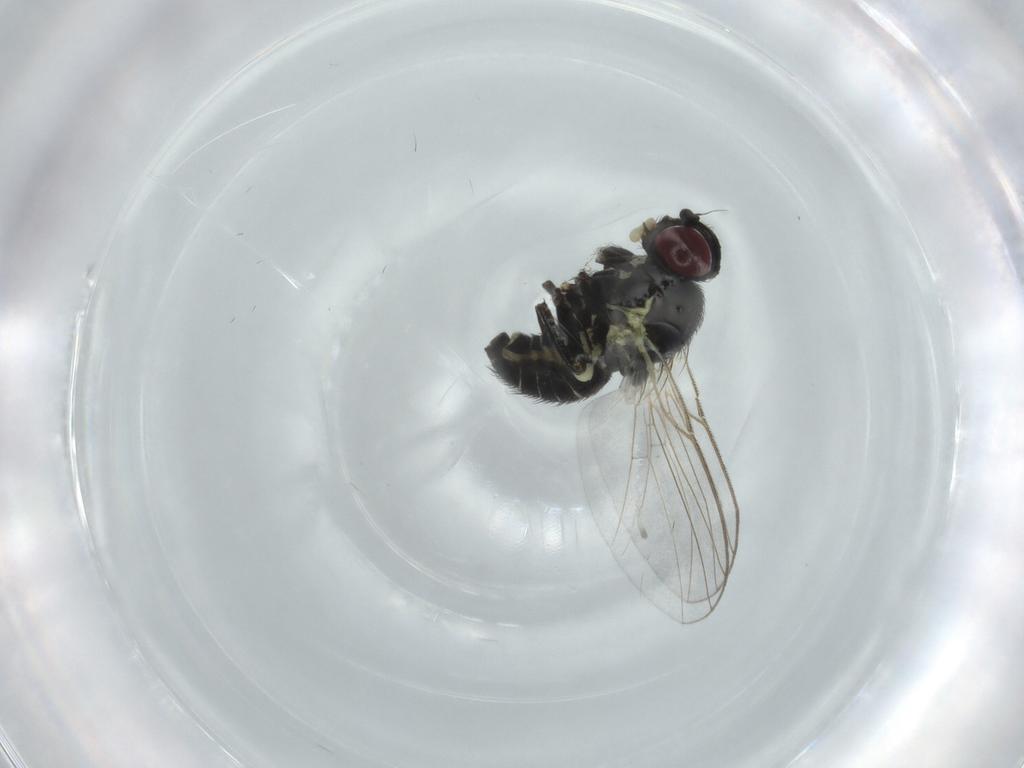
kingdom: Animalia
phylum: Arthropoda
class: Insecta
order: Diptera
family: Agromyzidae
